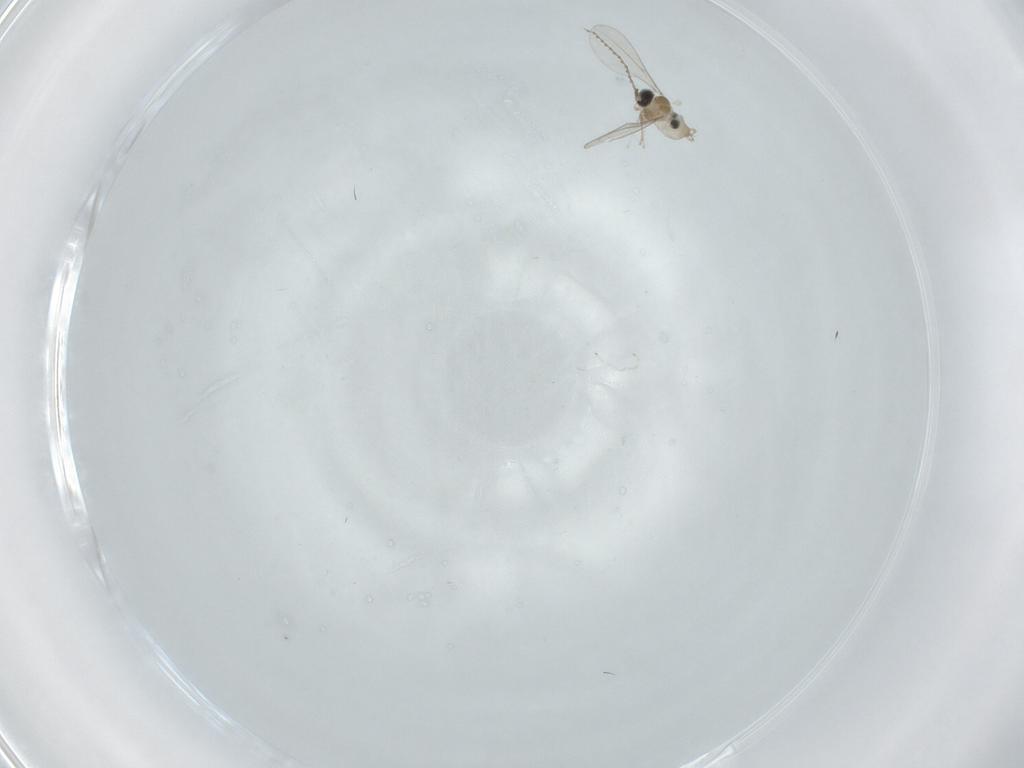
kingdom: Animalia
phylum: Arthropoda
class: Insecta
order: Diptera
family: Cecidomyiidae
